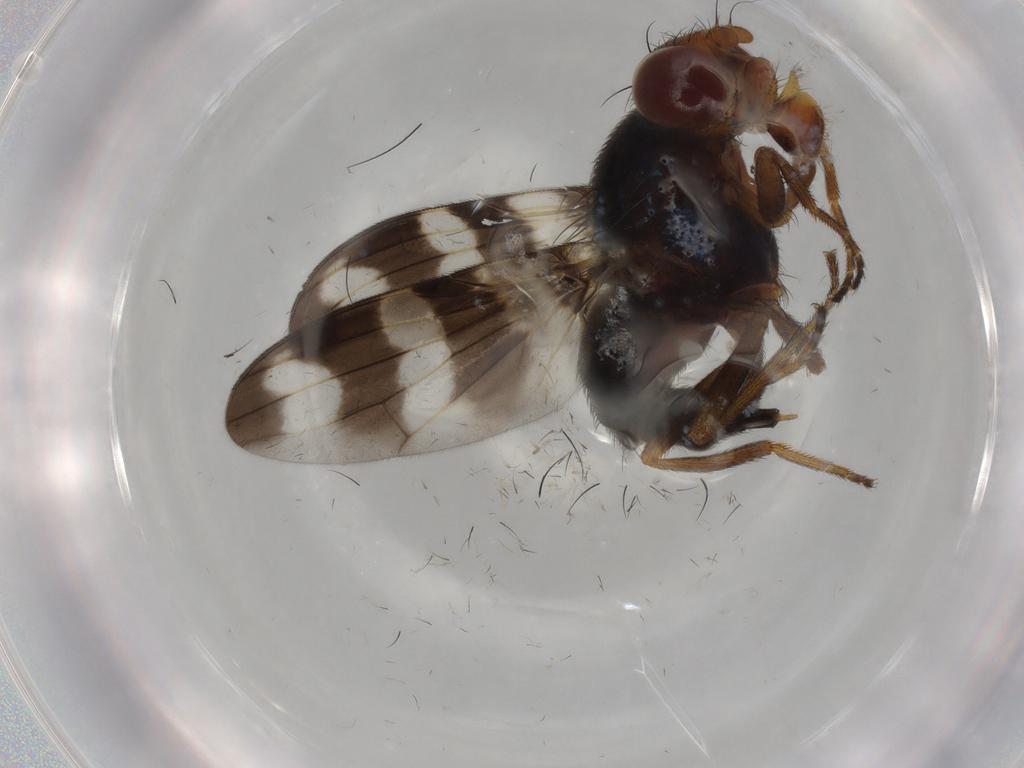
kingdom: Animalia
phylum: Arthropoda
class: Insecta
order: Diptera
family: Ulidiidae
